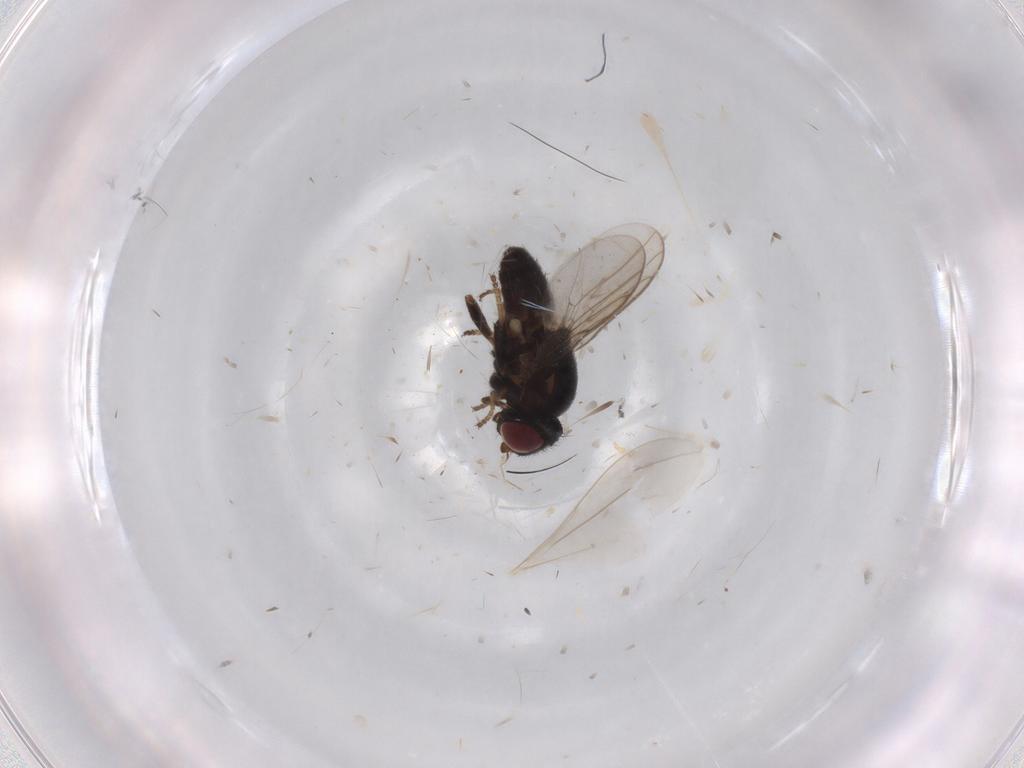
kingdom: Animalia
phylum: Arthropoda
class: Insecta
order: Diptera
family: Chloropidae
